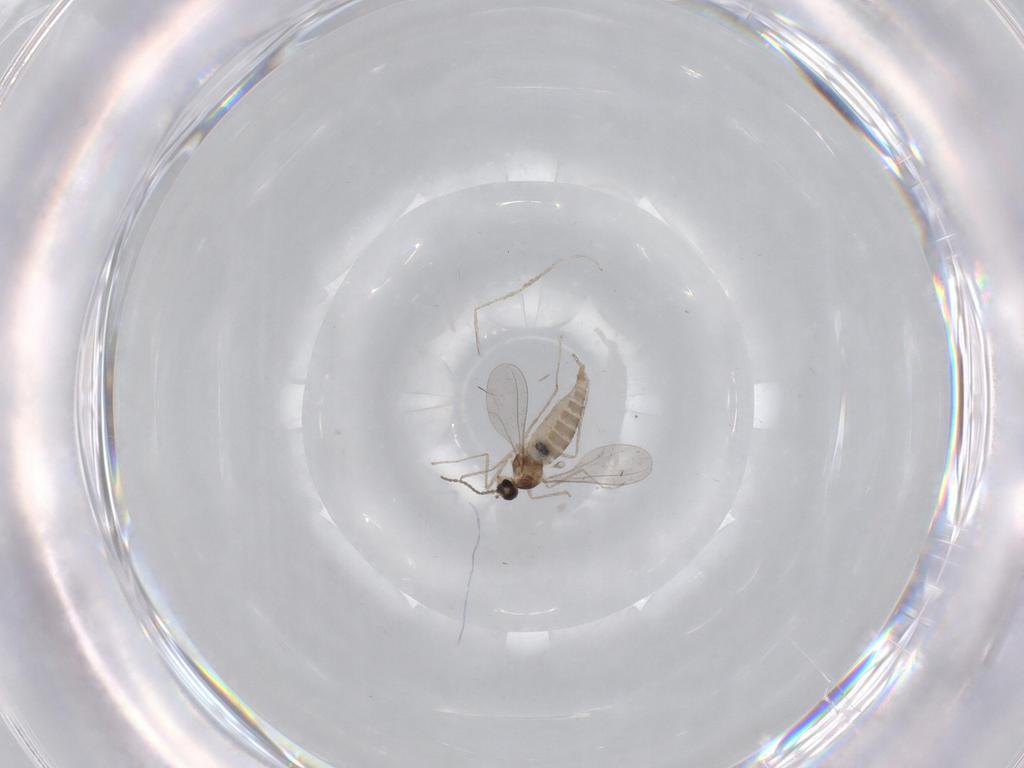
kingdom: Animalia
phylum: Arthropoda
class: Insecta
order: Diptera
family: Cecidomyiidae
